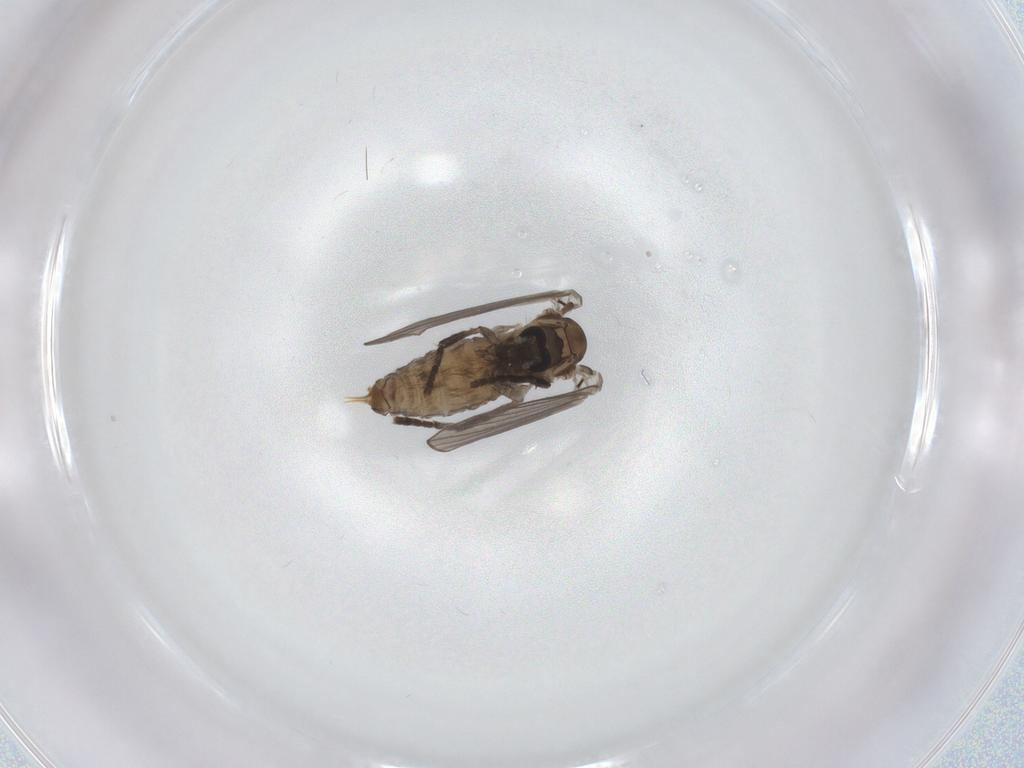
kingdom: Animalia
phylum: Arthropoda
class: Insecta
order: Diptera
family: Psychodidae
